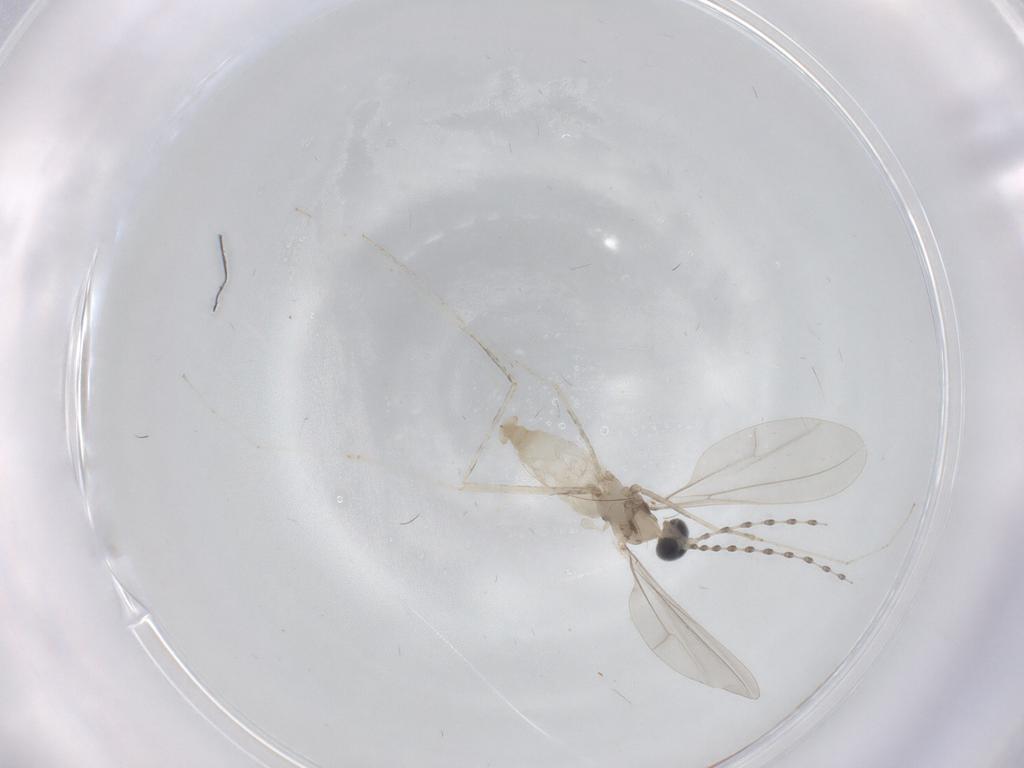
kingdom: Animalia
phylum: Arthropoda
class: Insecta
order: Diptera
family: Cecidomyiidae
